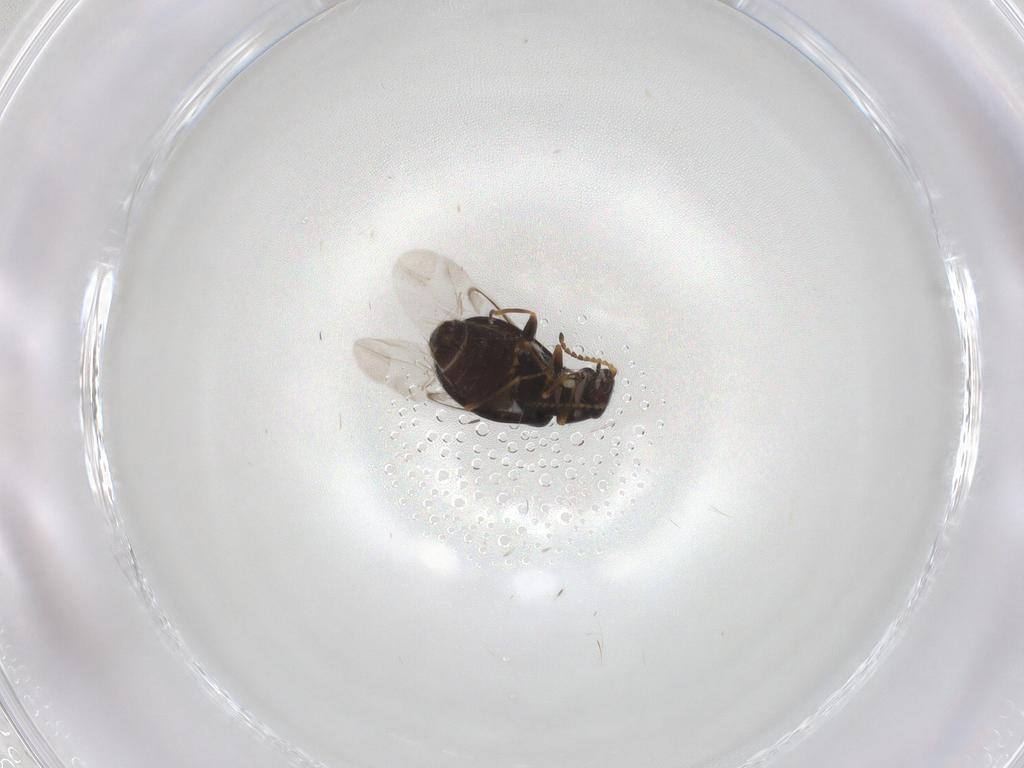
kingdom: Animalia
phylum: Arthropoda
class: Insecta
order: Coleoptera
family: Melyridae
